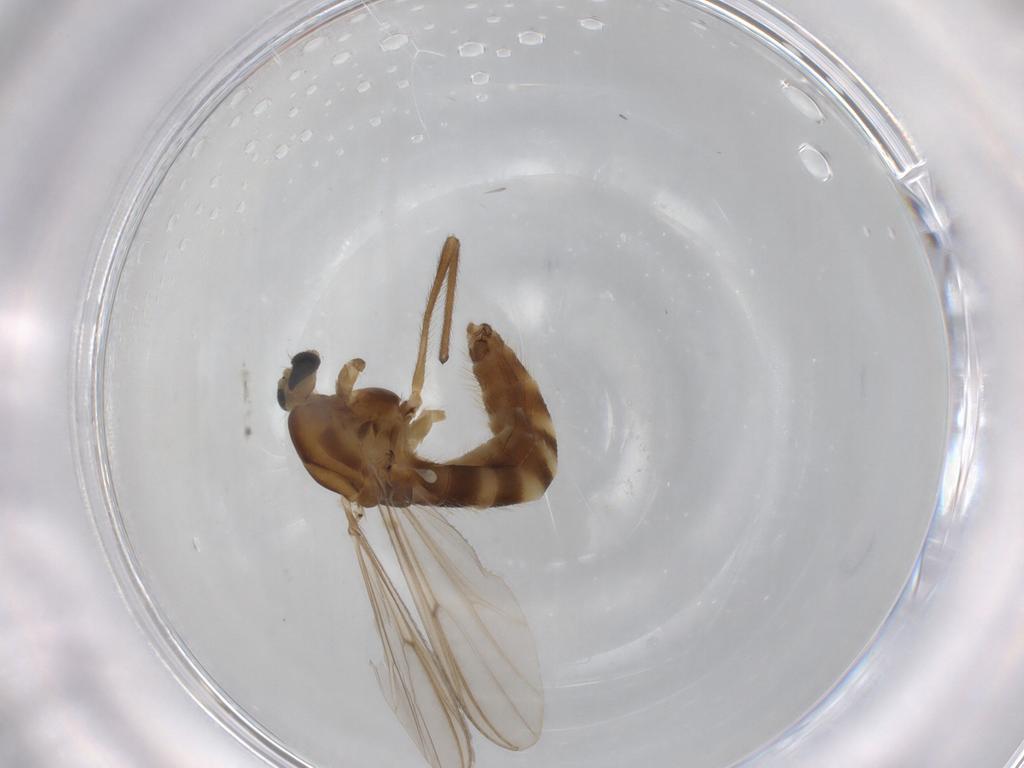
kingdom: Animalia
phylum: Arthropoda
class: Insecta
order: Diptera
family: Chironomidae
